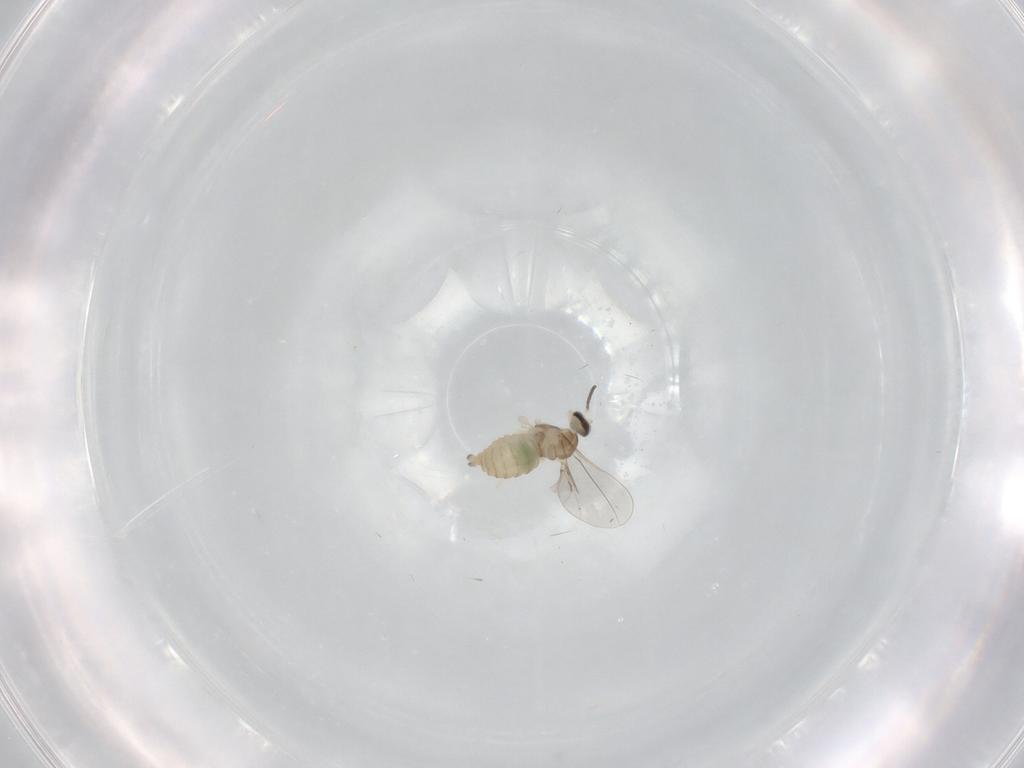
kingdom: Animalia
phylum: Arthropoda
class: Insecta
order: Diptera
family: Cecidomyiidae
